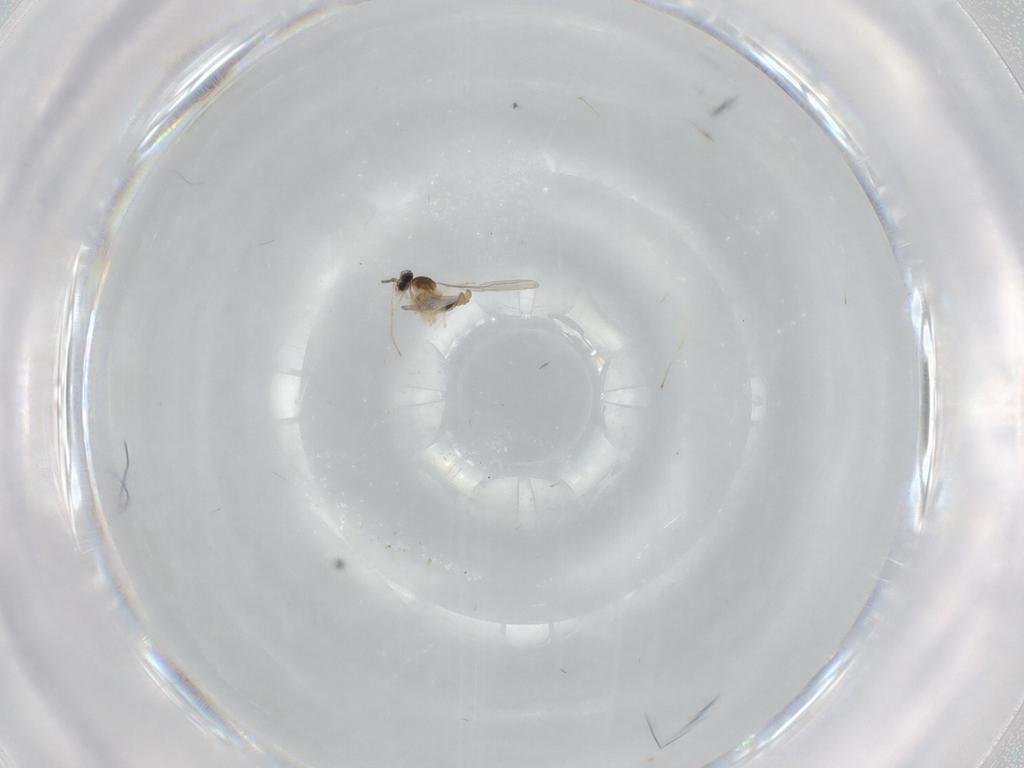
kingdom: Animalia
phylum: Arthropoda
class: Insecta
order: Diptera
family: Cecidomyiidae
